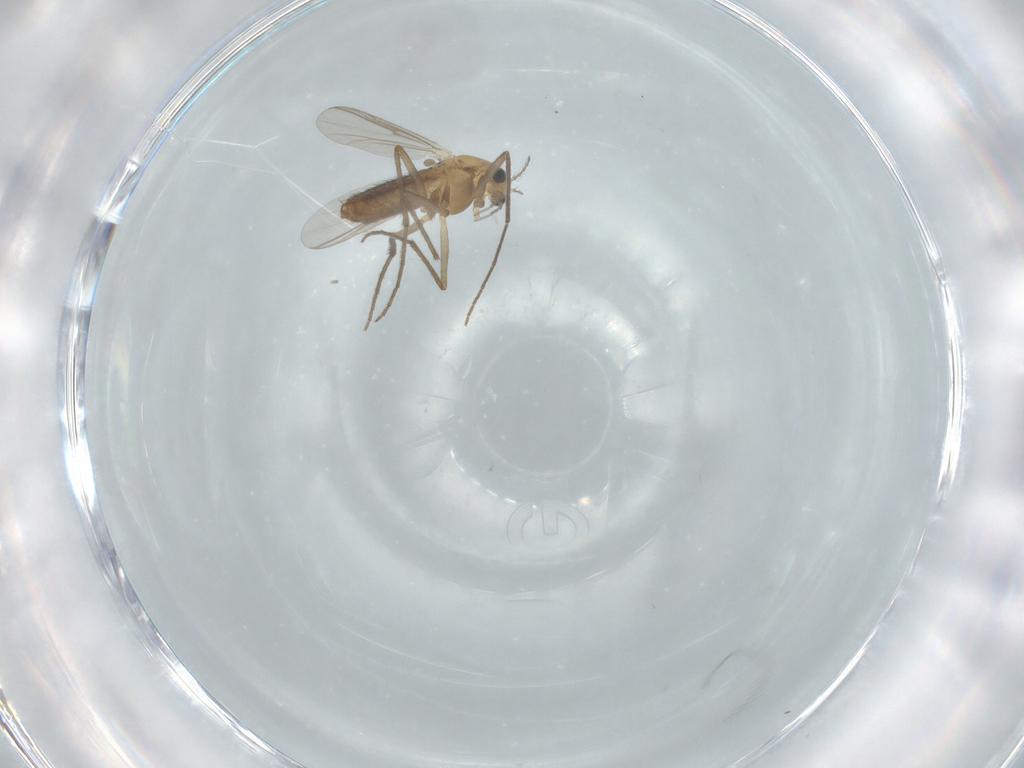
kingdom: Animalia
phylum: Arthropoda
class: Insecta
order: Diptera
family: Chironomidae
